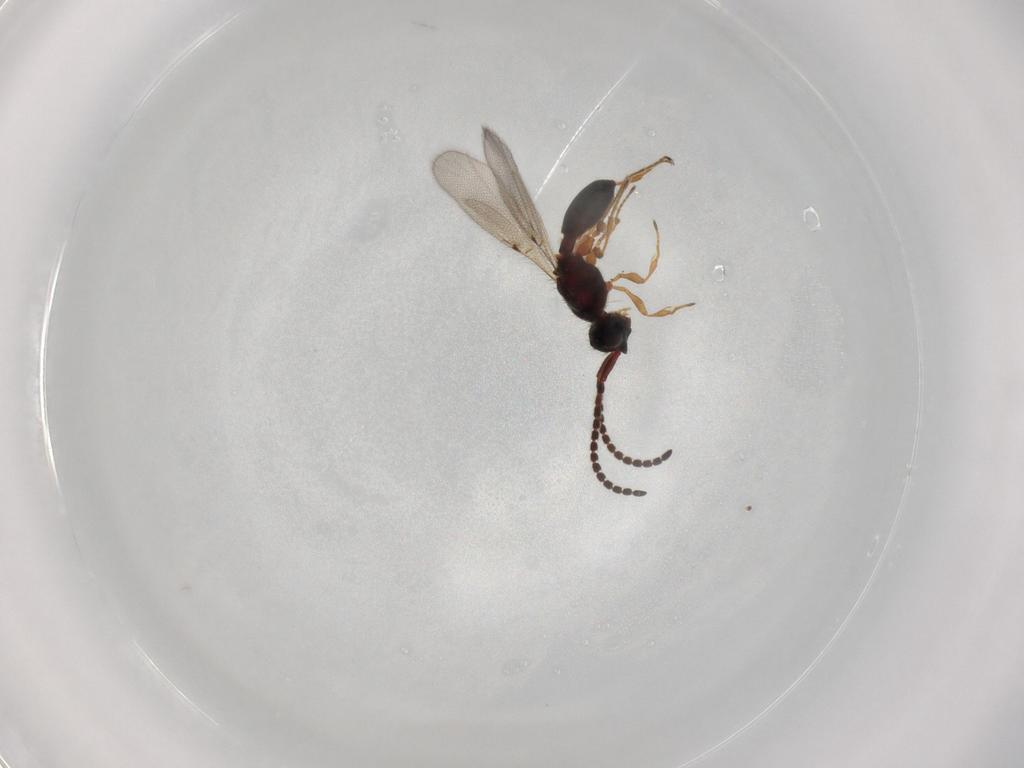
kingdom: Animalia
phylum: Arthropoda
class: Insecta
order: Hymenoptera
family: Diapriidae
